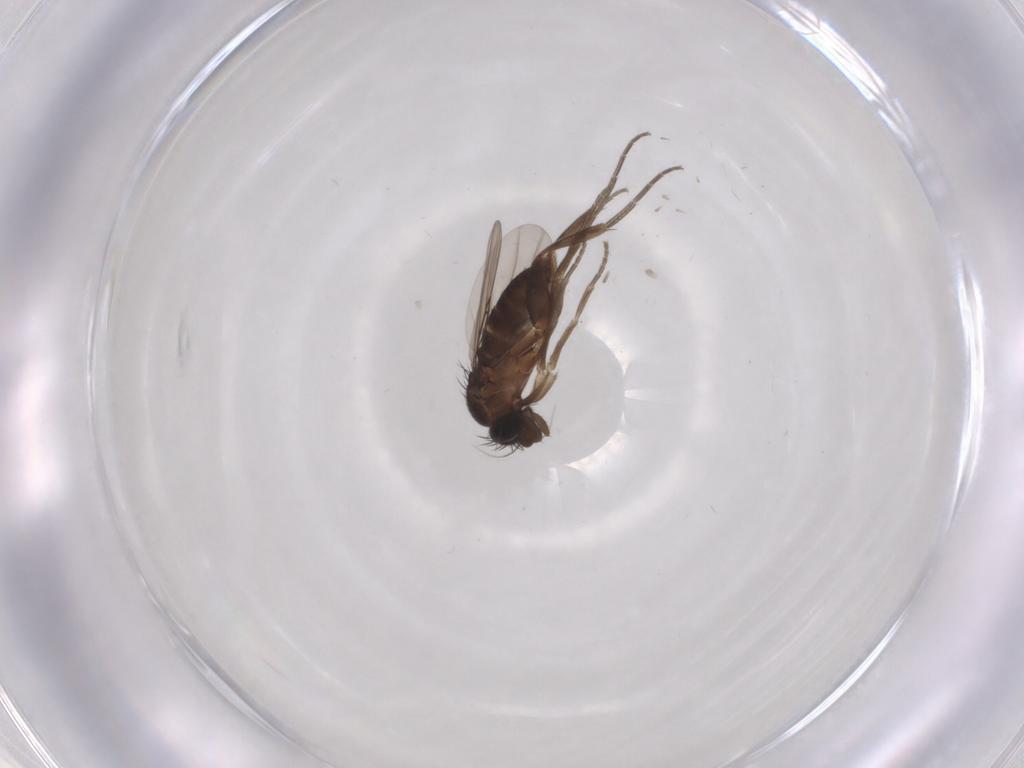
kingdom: Animalia
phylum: Arthropoda
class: Insecta
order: Diptera
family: Phoridae
